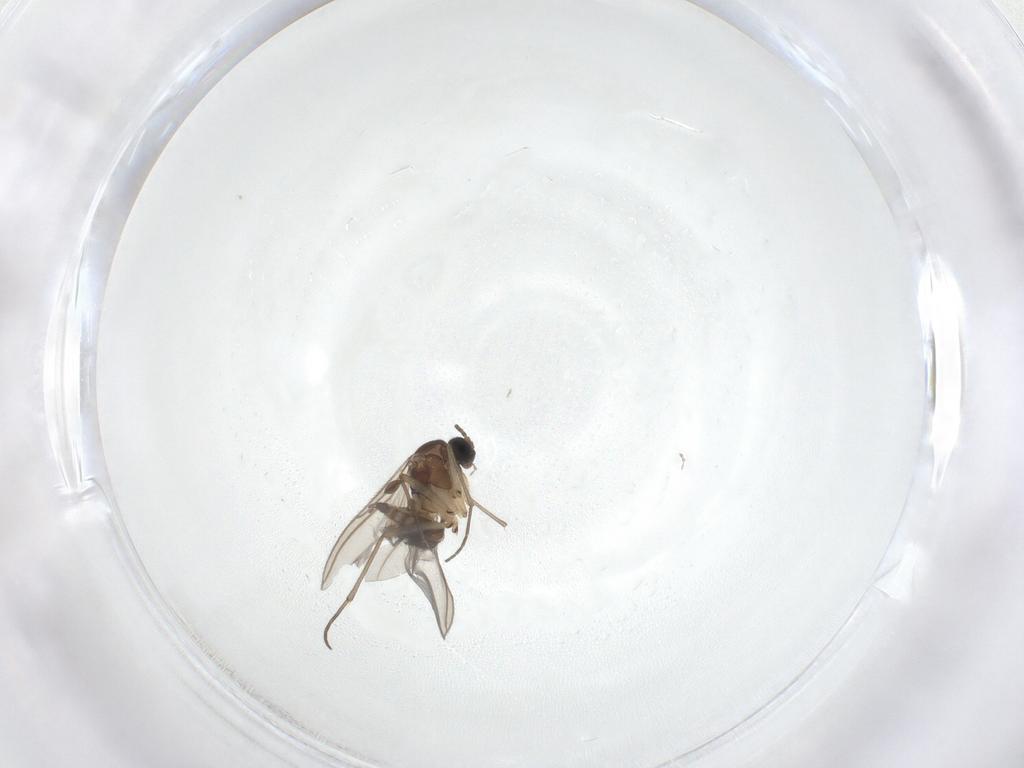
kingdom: Animalia
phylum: Arthropoda
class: Insecta
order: Diptera
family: Sciaridae
